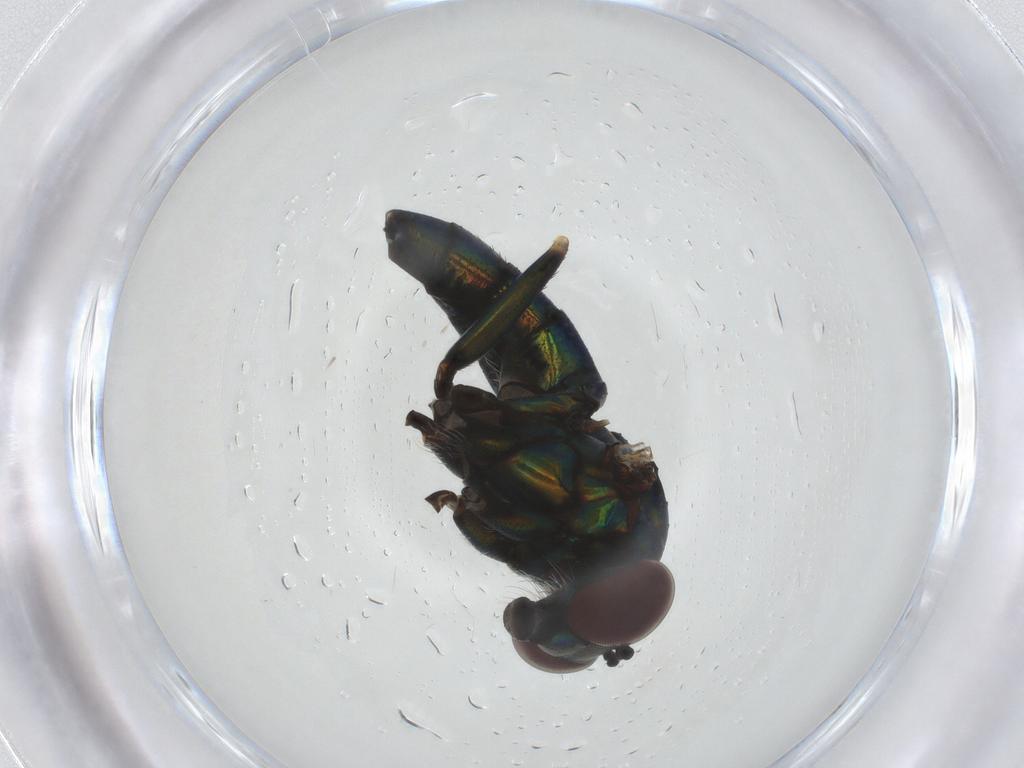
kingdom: Animalia
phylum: Arthropoda
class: Insecta
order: Diptera
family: Dolichopodidae
